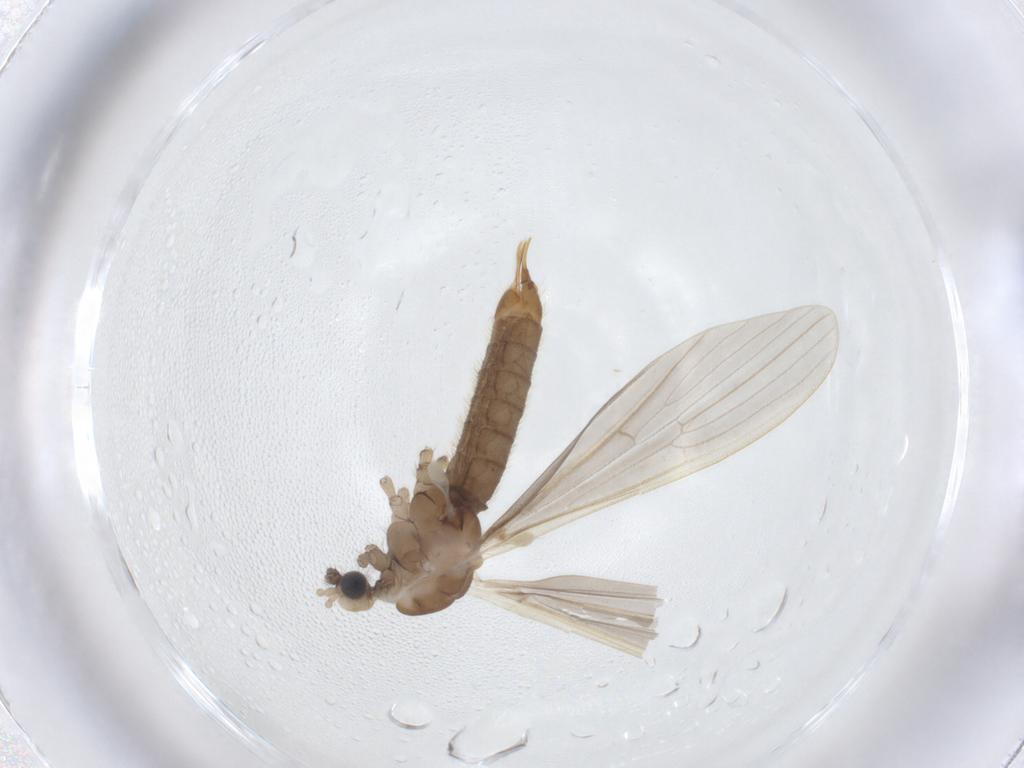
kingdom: Animalia
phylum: Arthropoda
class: Insecta
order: Diptera
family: Limoniidae
